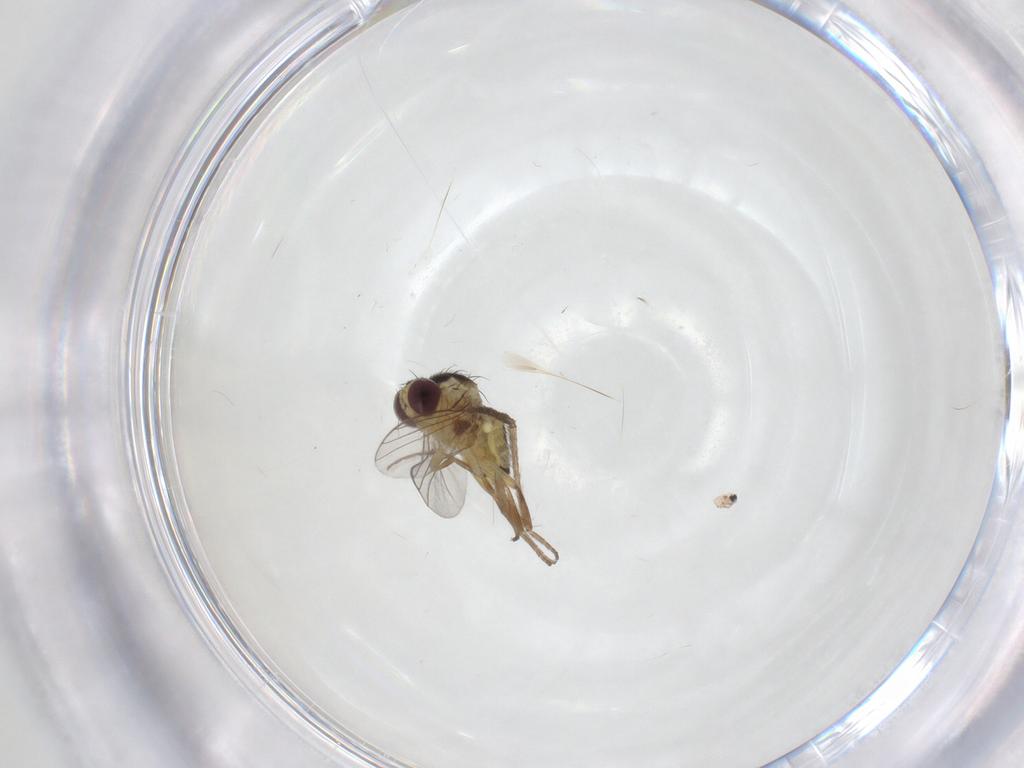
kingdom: Animalia
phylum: Arthropoda
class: Insecta
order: Diptera
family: Agromyzidae
